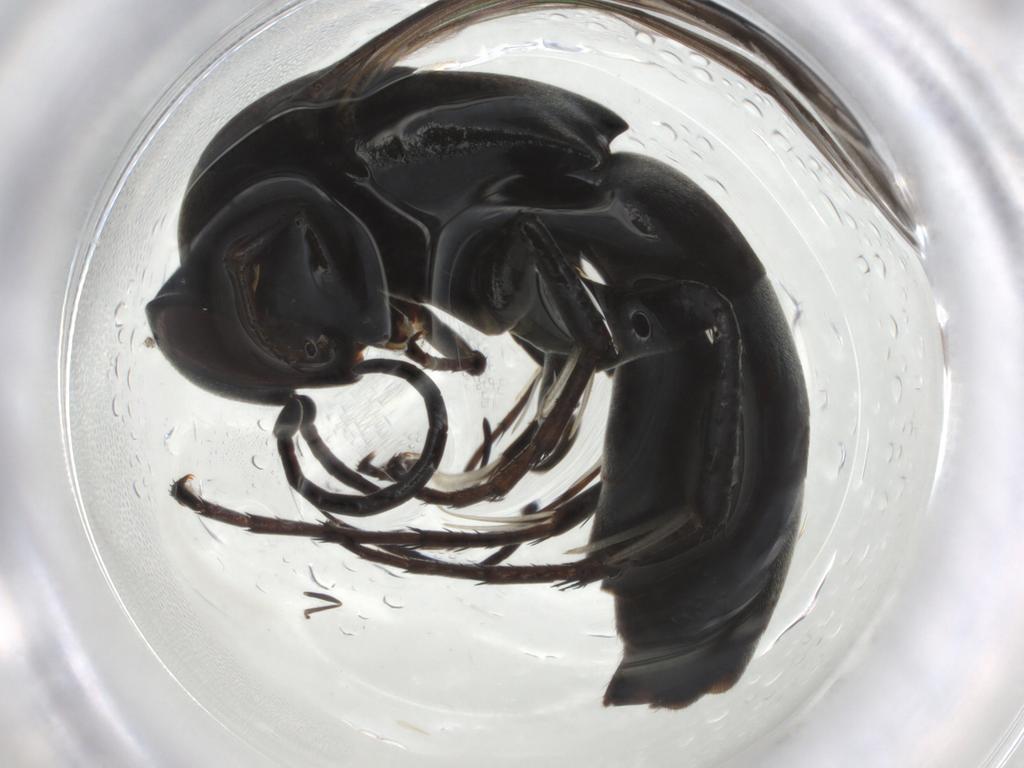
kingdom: Animalia
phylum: Arthropoda
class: Insecta
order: Hymenoptera
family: Pompilidae
